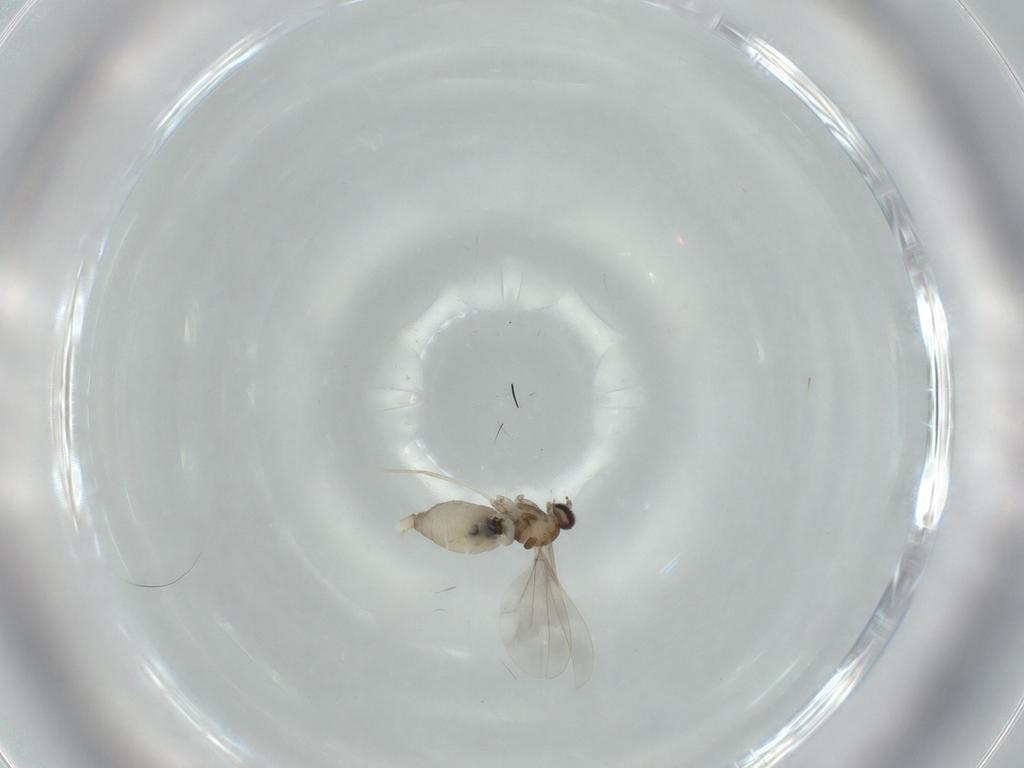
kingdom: Animalia
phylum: Arthropoda
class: Insecta
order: Diptera
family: Cecidomyiidae
